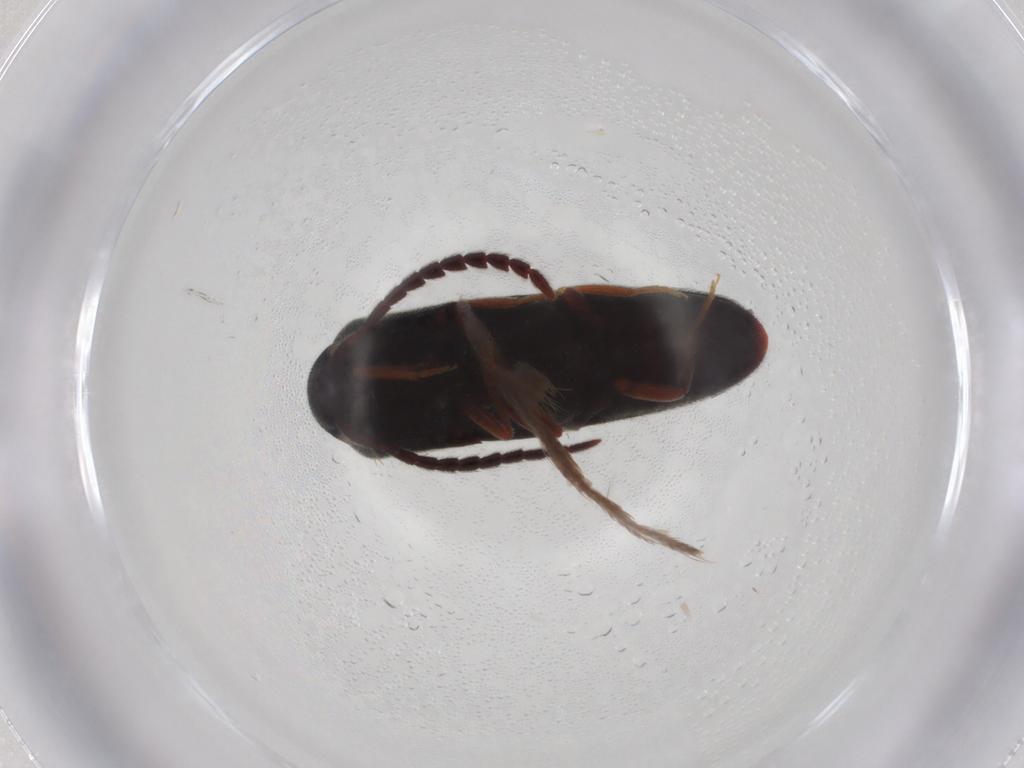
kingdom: Animalia
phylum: Arthropoda
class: Insecta
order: Coleoptera
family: Eucnemidae
